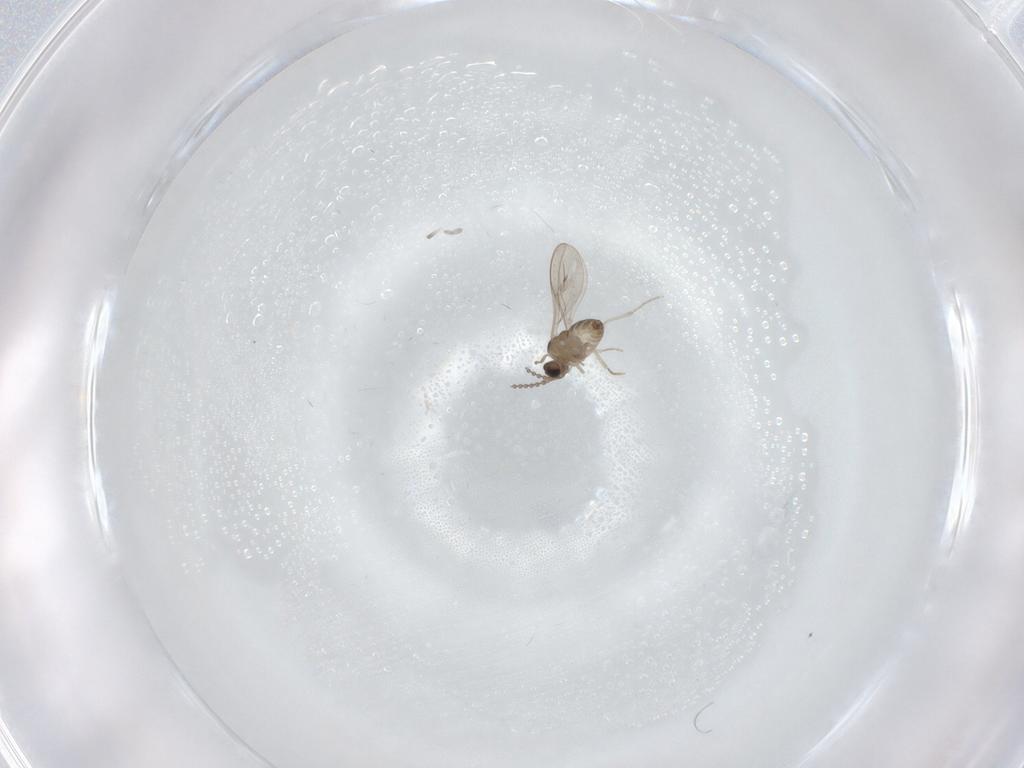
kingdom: Animalia
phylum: Arthropoda
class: Insecta
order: Diptera
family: Cecidomyiidae
